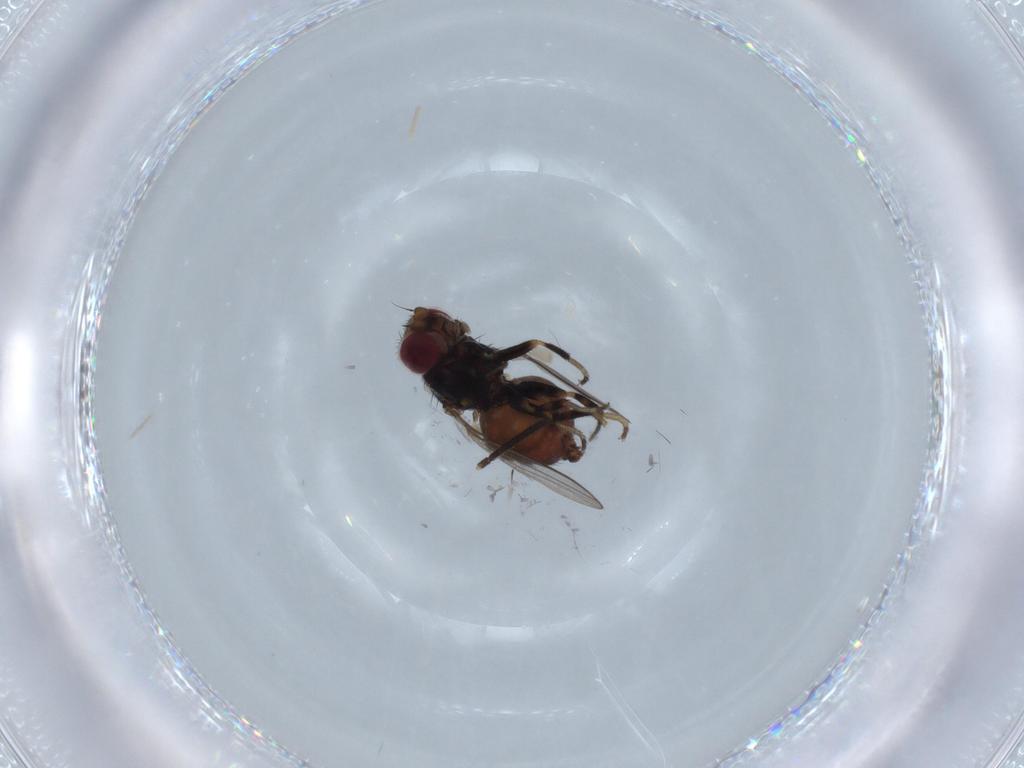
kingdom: Animalia
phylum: Arthropoda
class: Insecta
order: Diptera
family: Chloropidae
